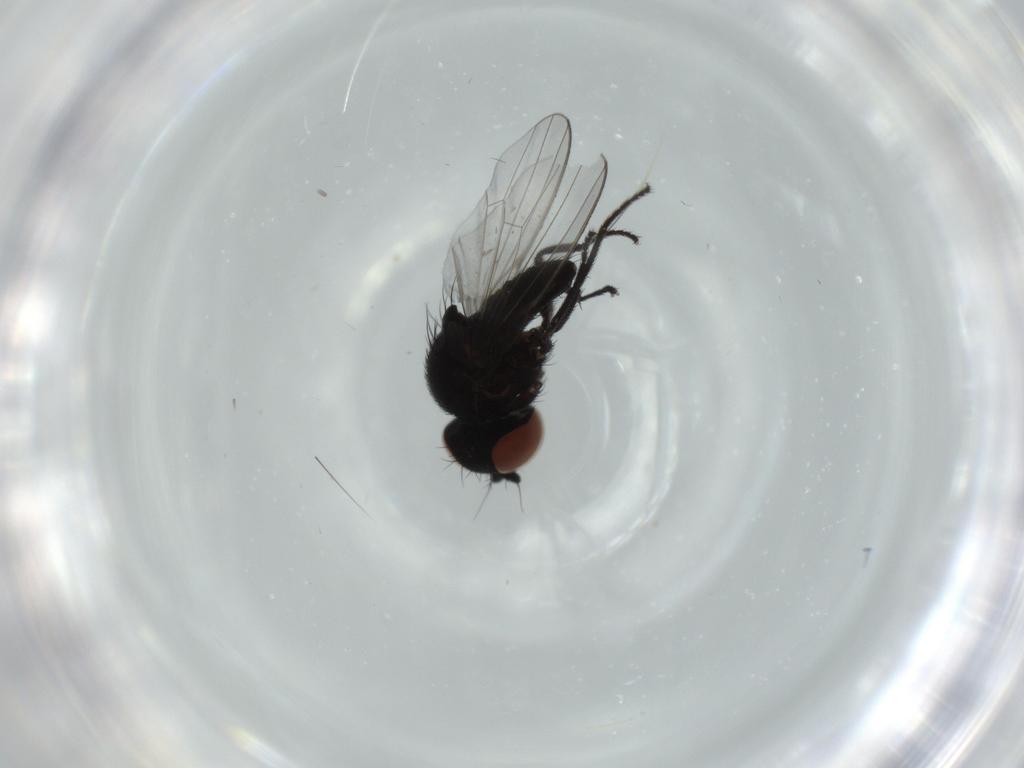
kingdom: Animalia
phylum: Arthropoda
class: Insecta
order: Diptera
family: Milichiidae
